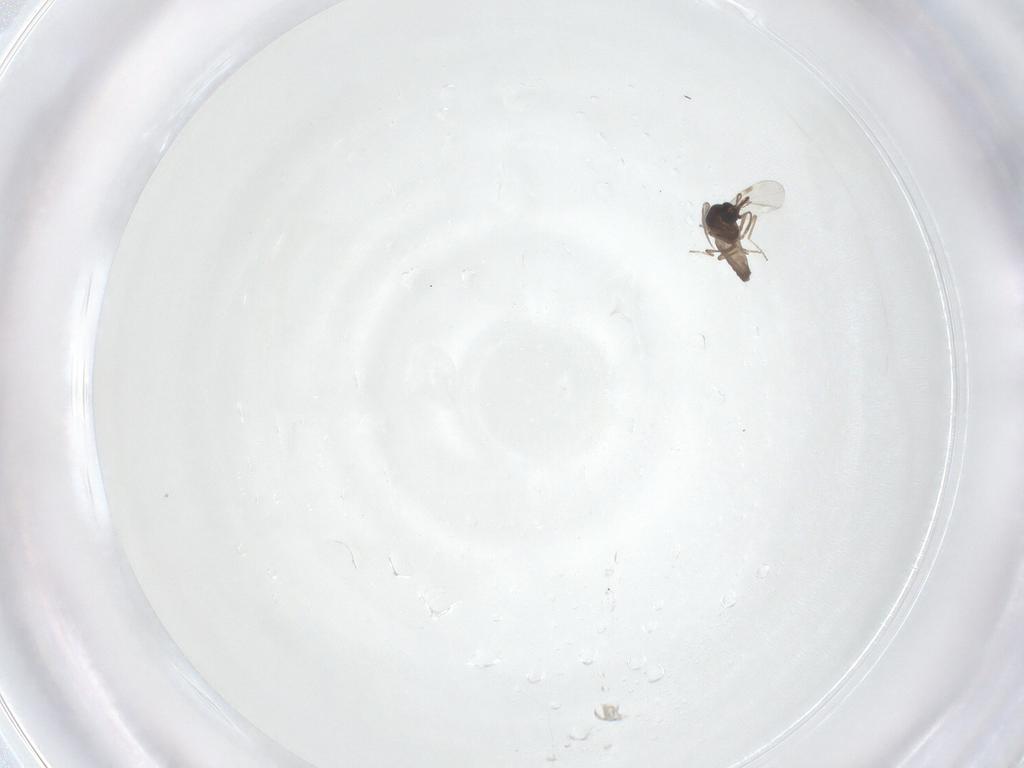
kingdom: Animalia
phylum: Arthropoda
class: Insecta
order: Diptera
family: Ceratopogonidae
